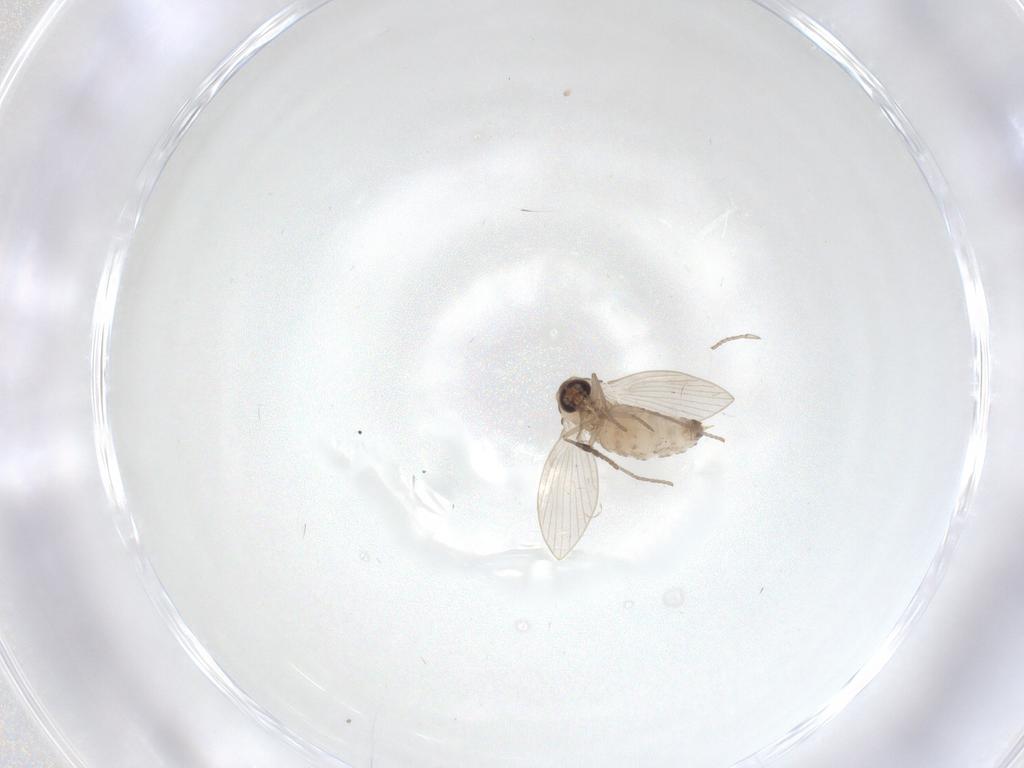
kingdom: Animalia
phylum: Arthropoda
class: Insecta
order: Diptera
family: Psychodidae
